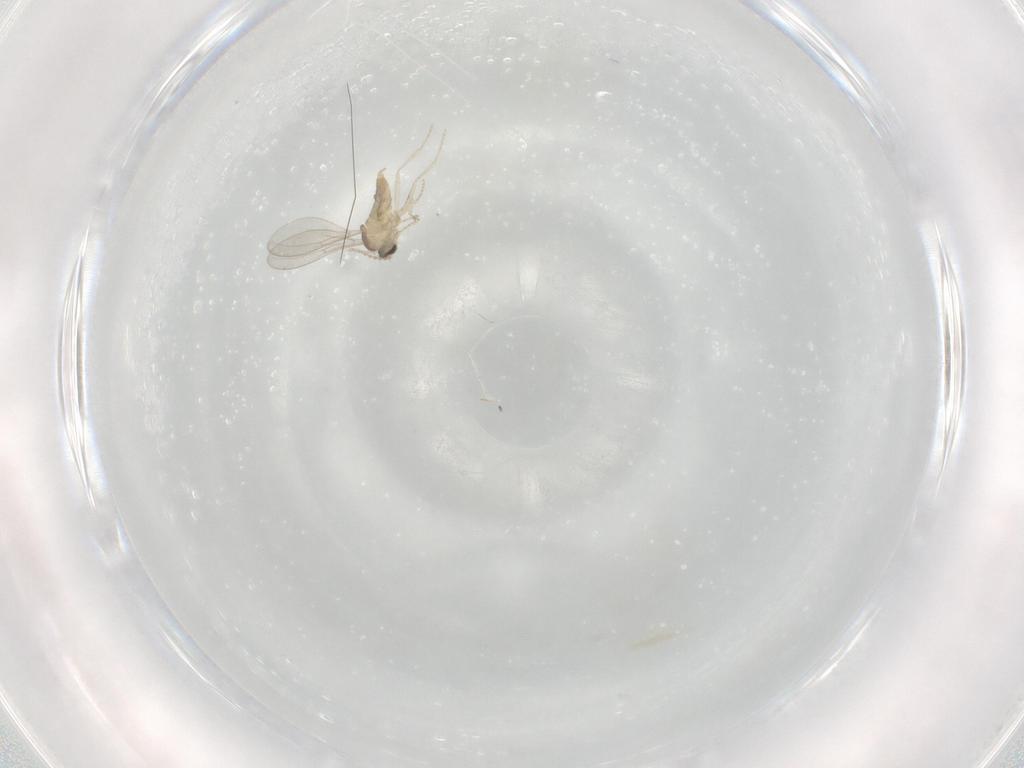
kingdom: Animalia
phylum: Arthropoda
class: Insecta
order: Diptera
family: Cecidomyiidae
